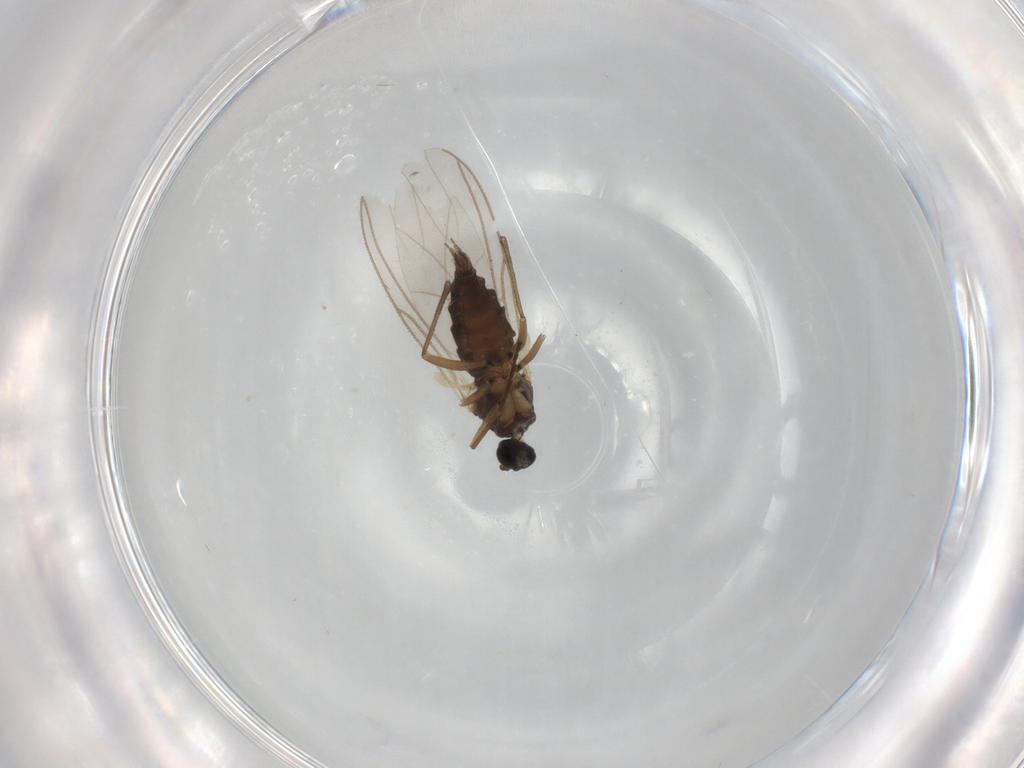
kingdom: Animalia
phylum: Arthropoda
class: Insecta
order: Diptera
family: Sciaridae
